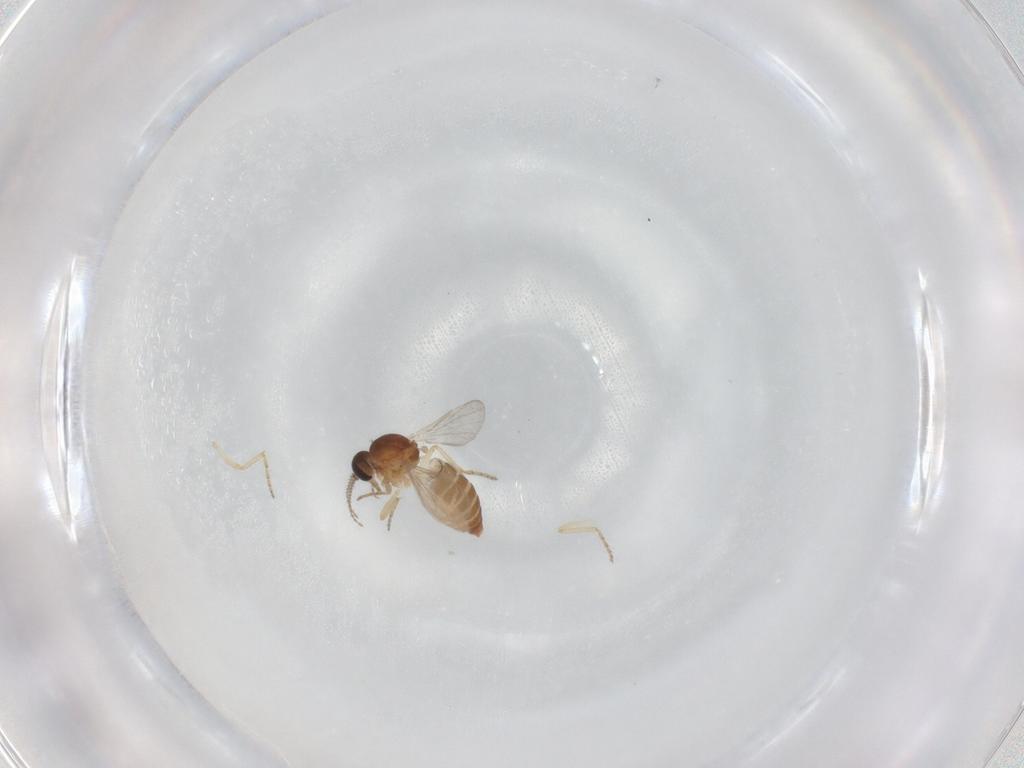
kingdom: Animalia
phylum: Arthropoda
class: Insecta
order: Diptera
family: Ceratopogonidae
